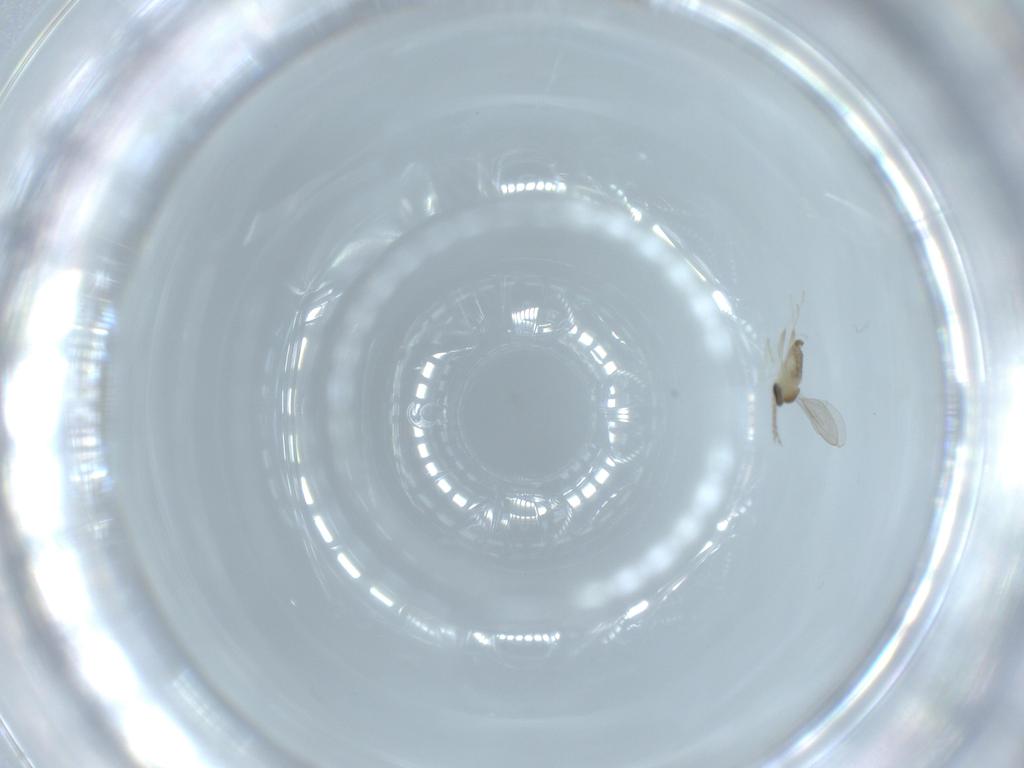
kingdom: Animalia
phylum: Arthropoda
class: Insecta
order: Diptera
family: Cecidomyiidae
